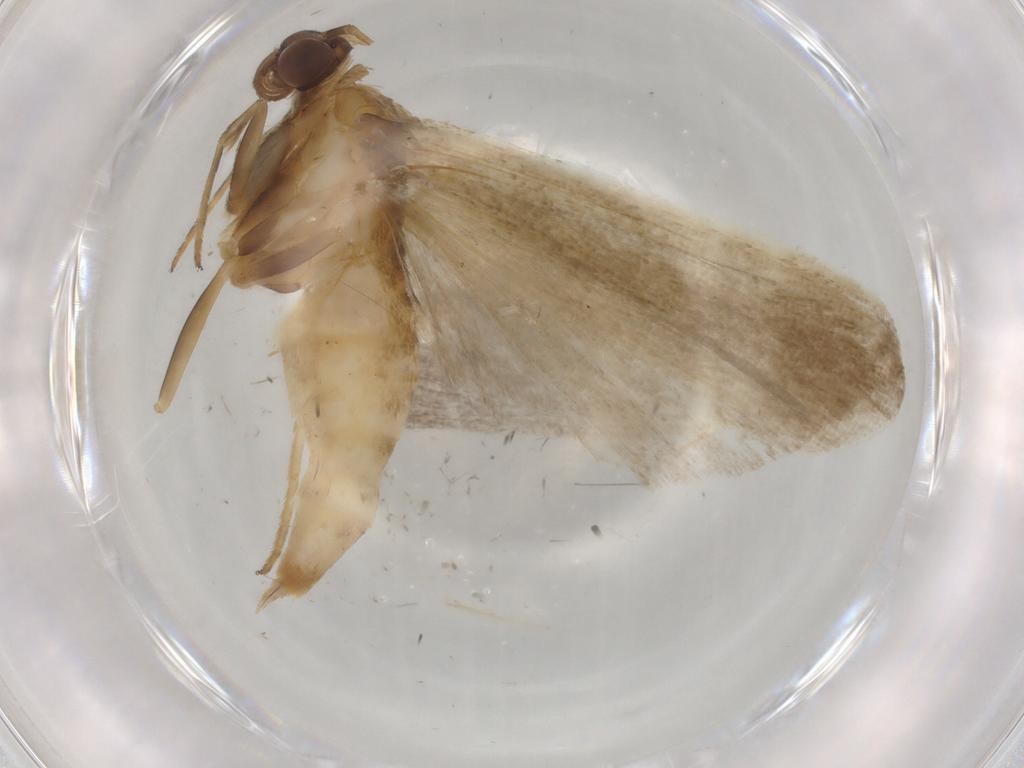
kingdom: Animalia
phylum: Arthropoda
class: Insecta
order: Lepidoptera
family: Noctuidae
